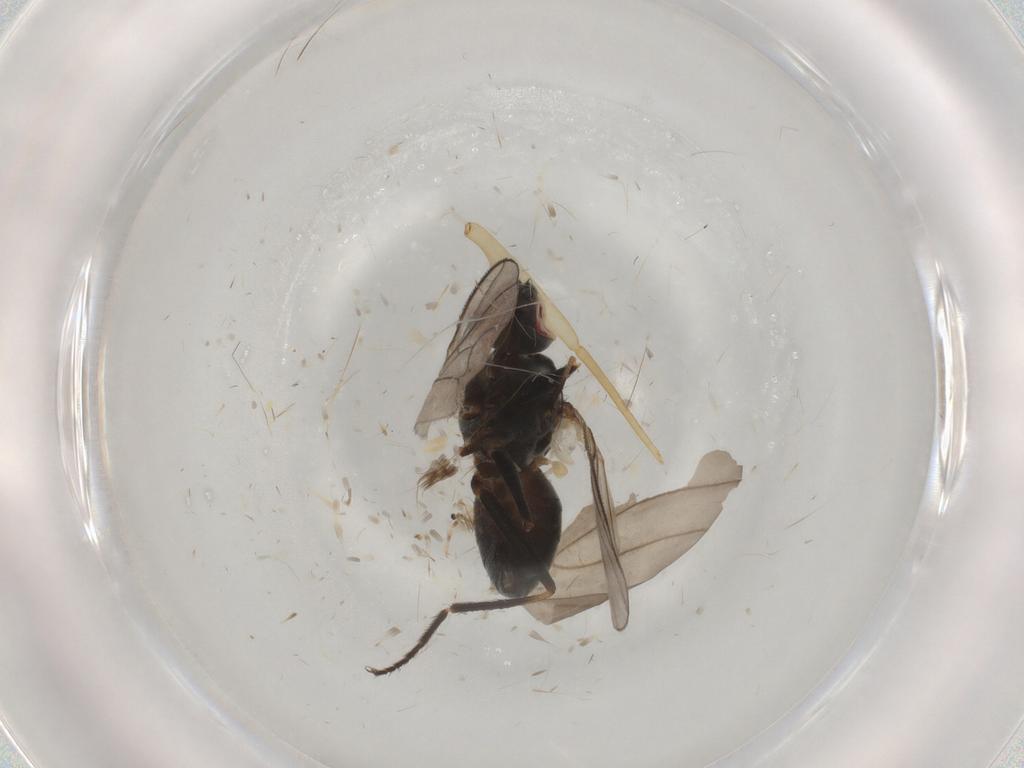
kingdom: Animalia
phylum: Arthropoda
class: Insecta
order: Diptera
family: Muscidae
